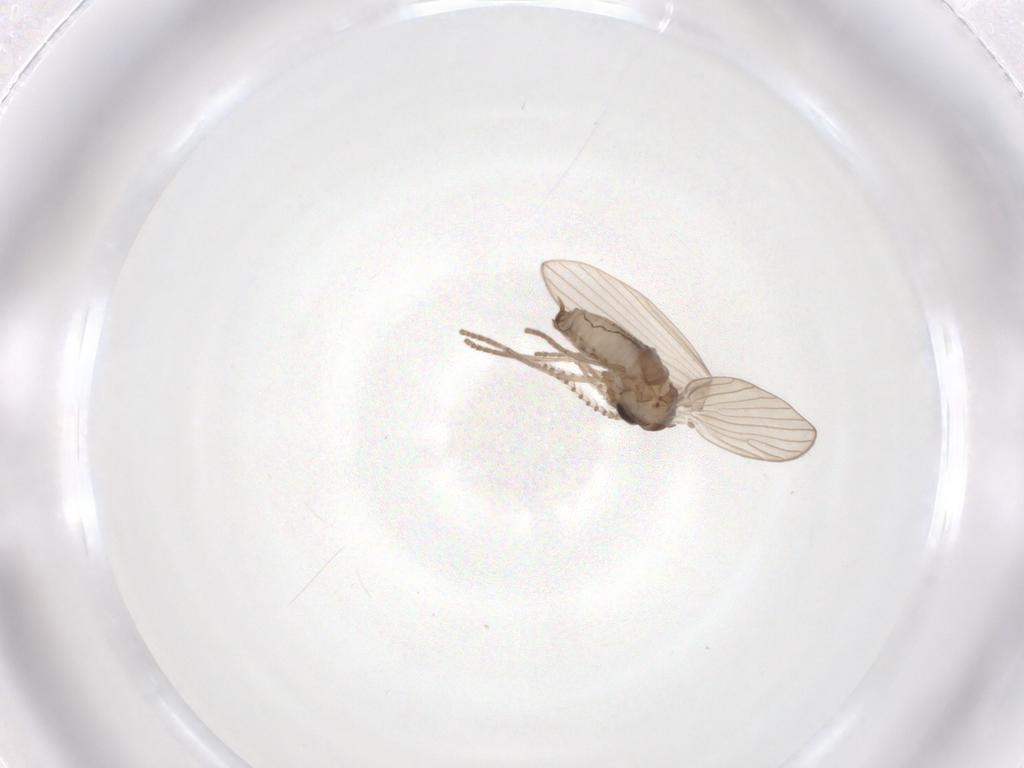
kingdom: Animalia
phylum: Arthropoda
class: Insecta
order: Diptera
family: Psychodidae
